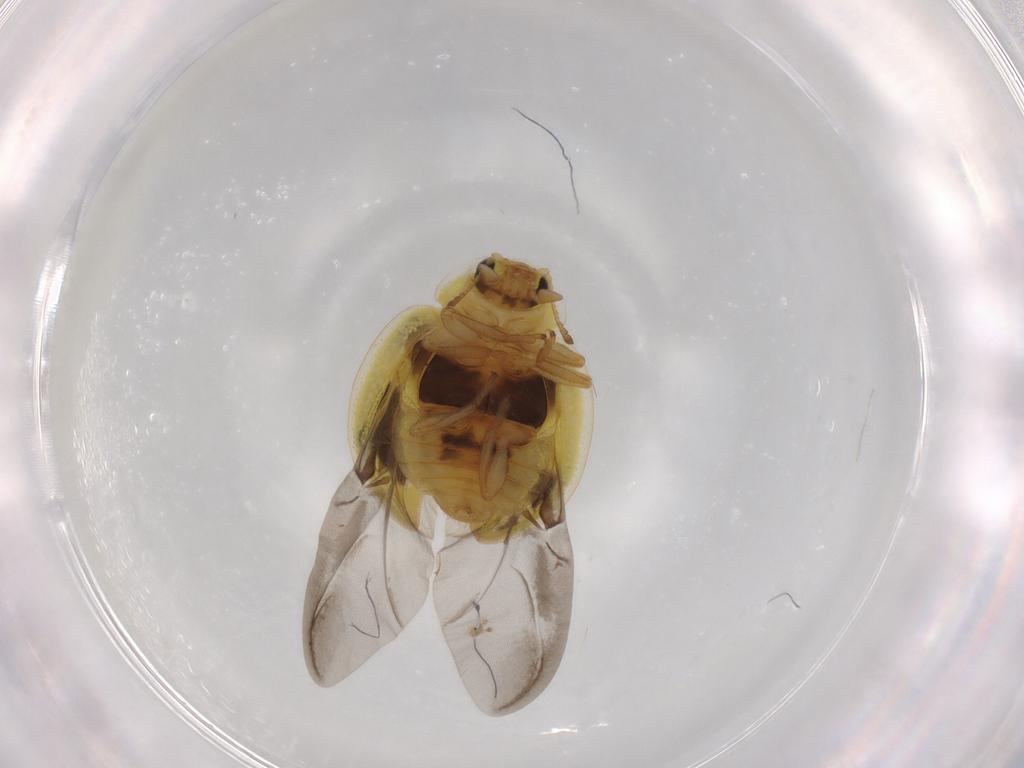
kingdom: Animalia
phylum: Arthropoda
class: Insecta
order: Coleoptera
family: Coccinellidae
